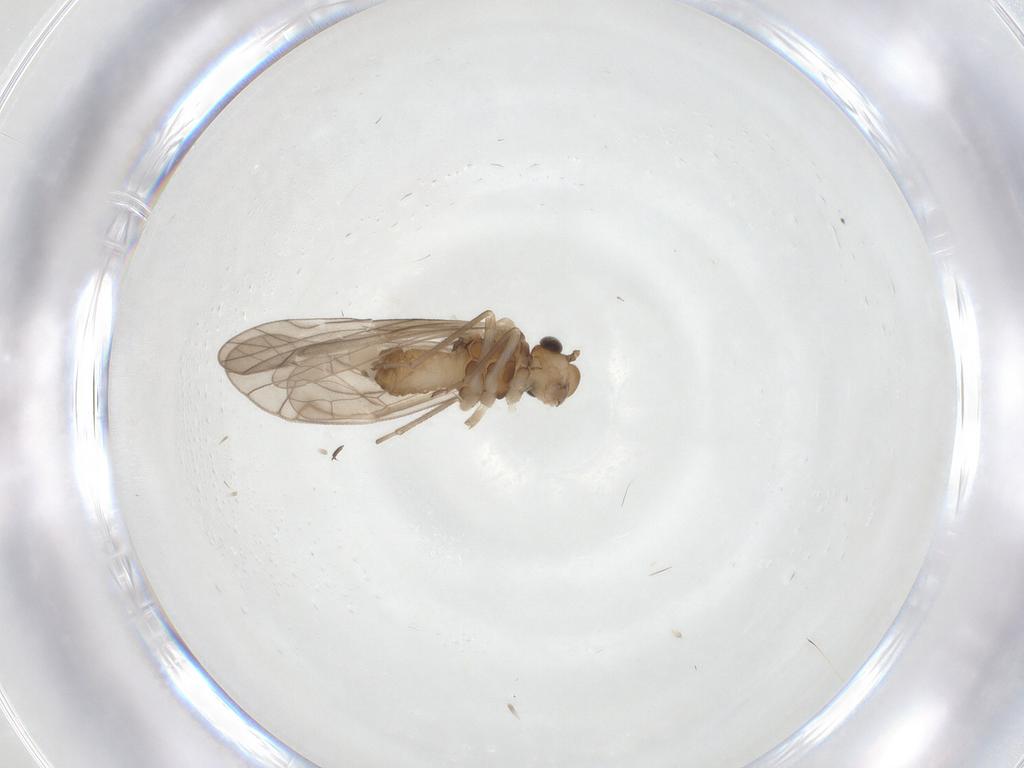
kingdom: Animalia
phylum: Arthropoda
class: Insecta
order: Psocodea
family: Philotarsidae
